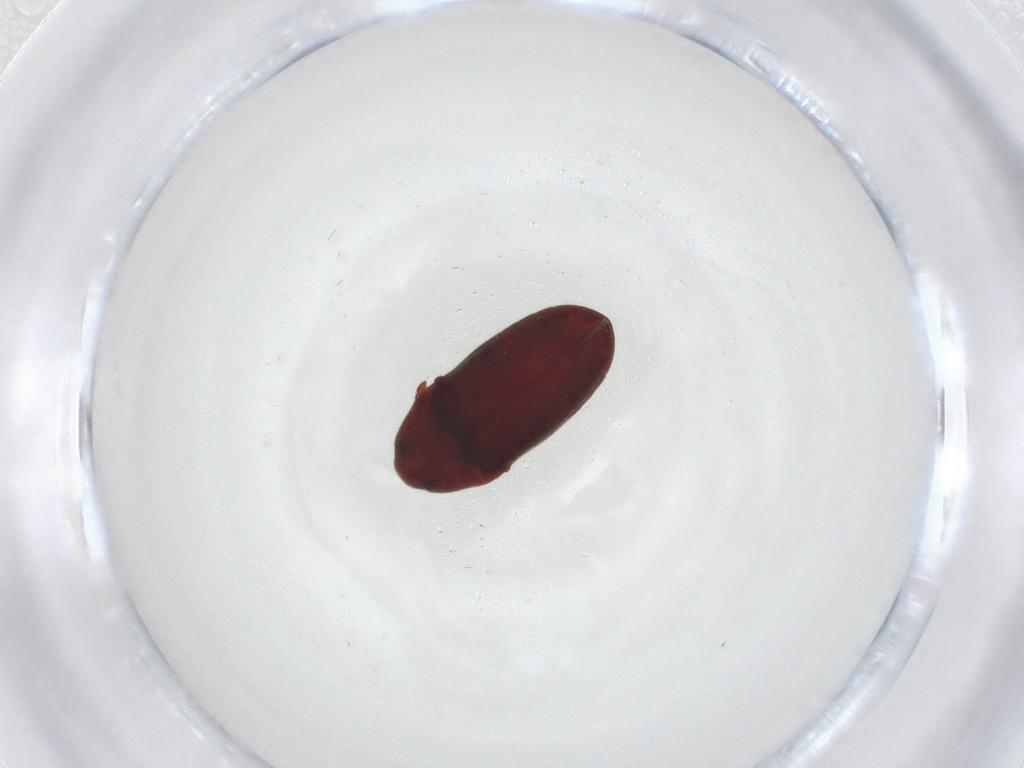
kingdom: Animalia
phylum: Arthropoda
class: Insecta
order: Coleoptera
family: Throscidae
